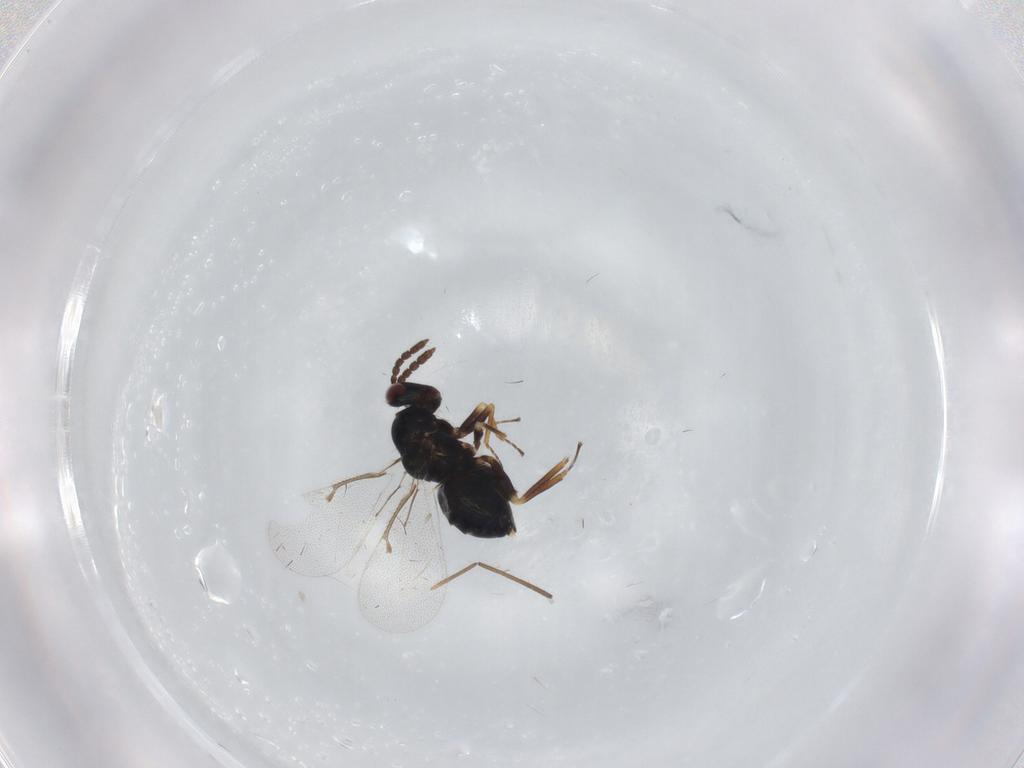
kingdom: Animalia
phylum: Arthropoda
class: Insecta
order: Hymenoptera
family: Eulophidae
